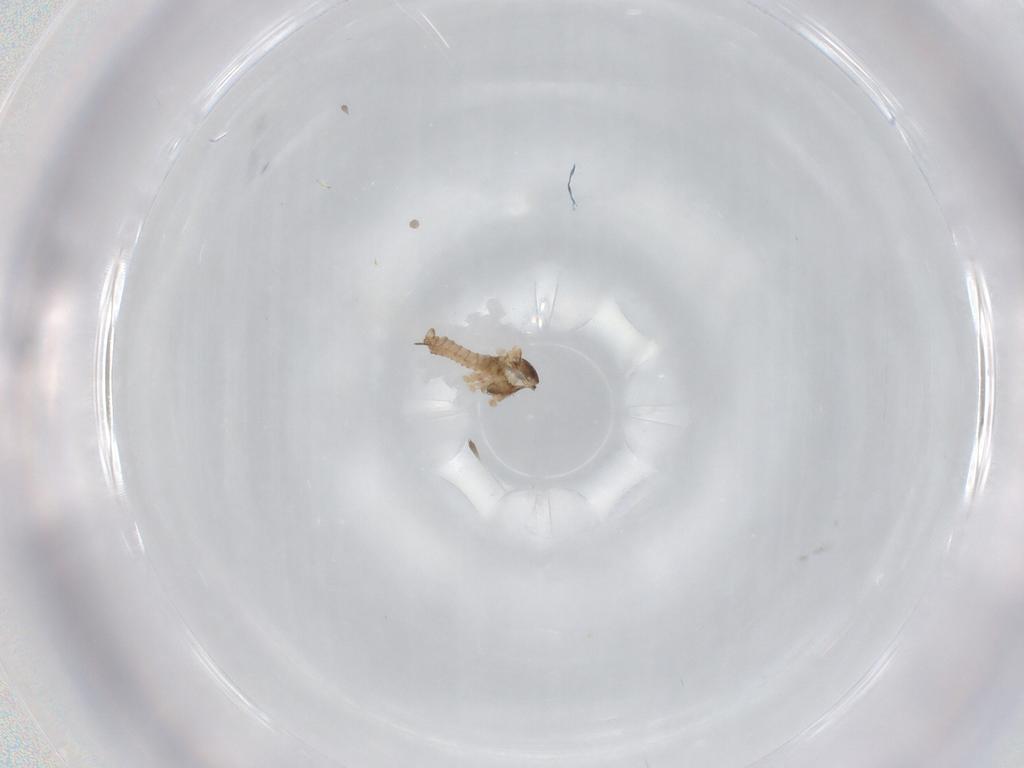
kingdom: Animalia
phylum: Arthropoda
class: Insecta
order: Diptera
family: Cecidomyiidae
